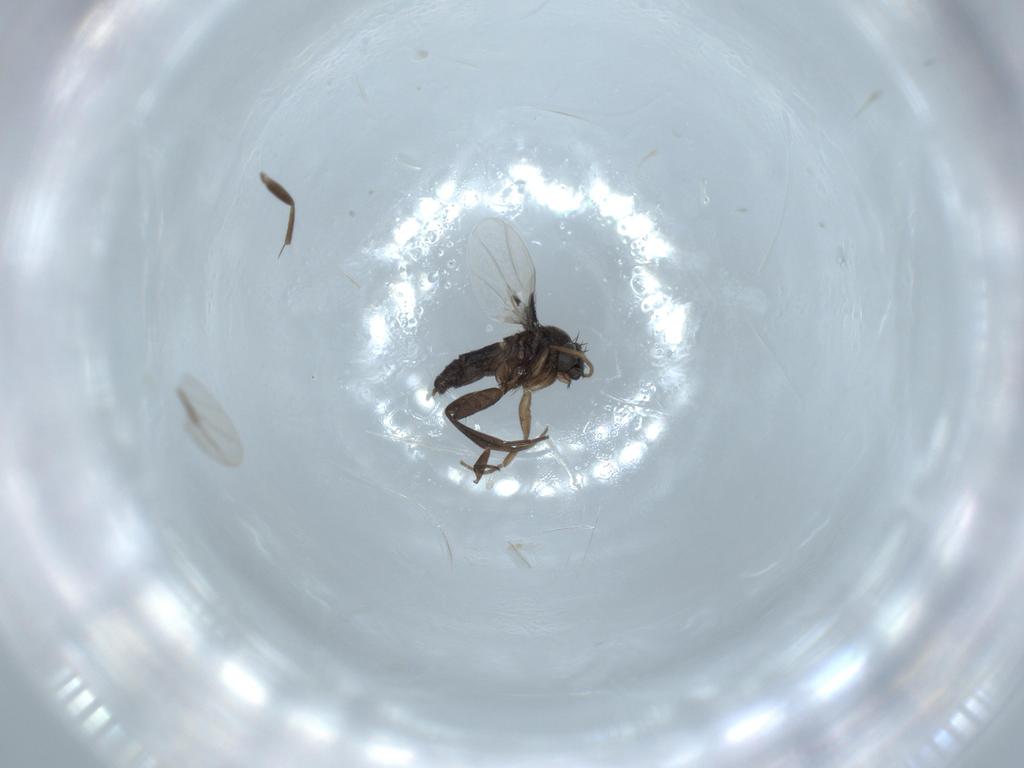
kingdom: Animalia
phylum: Arthropoda
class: Insecta
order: Diptera
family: Phoridae
